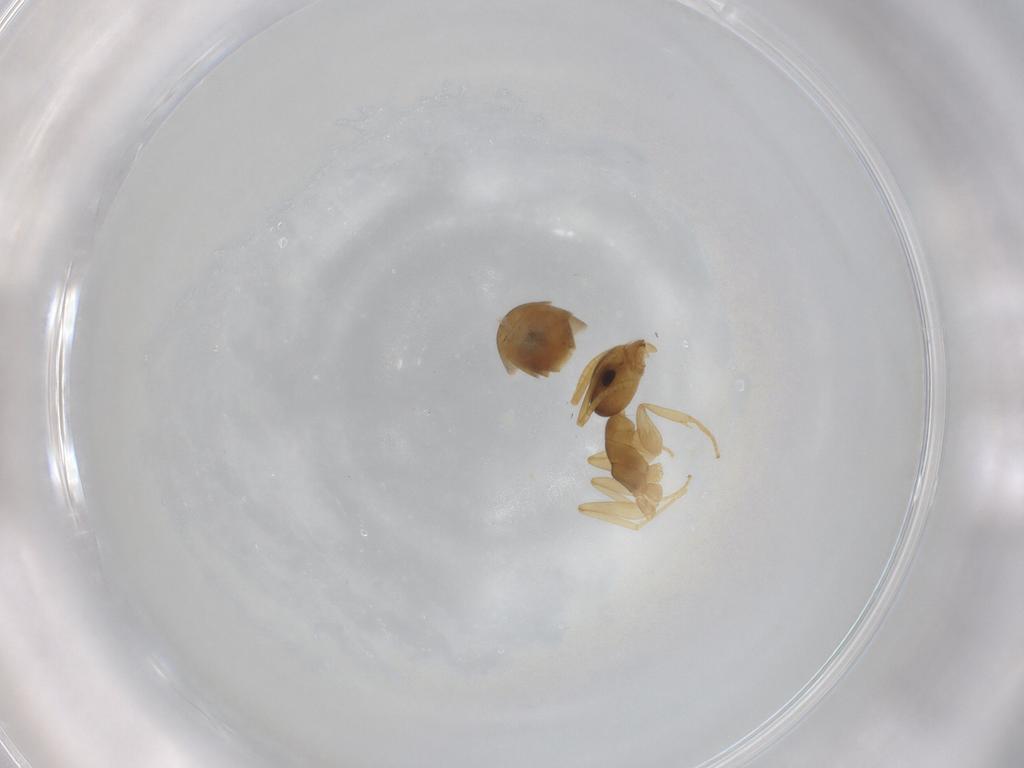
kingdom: Animalia
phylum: Arthropoda
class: Insecta
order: Hymenoptera
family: Formicidae
